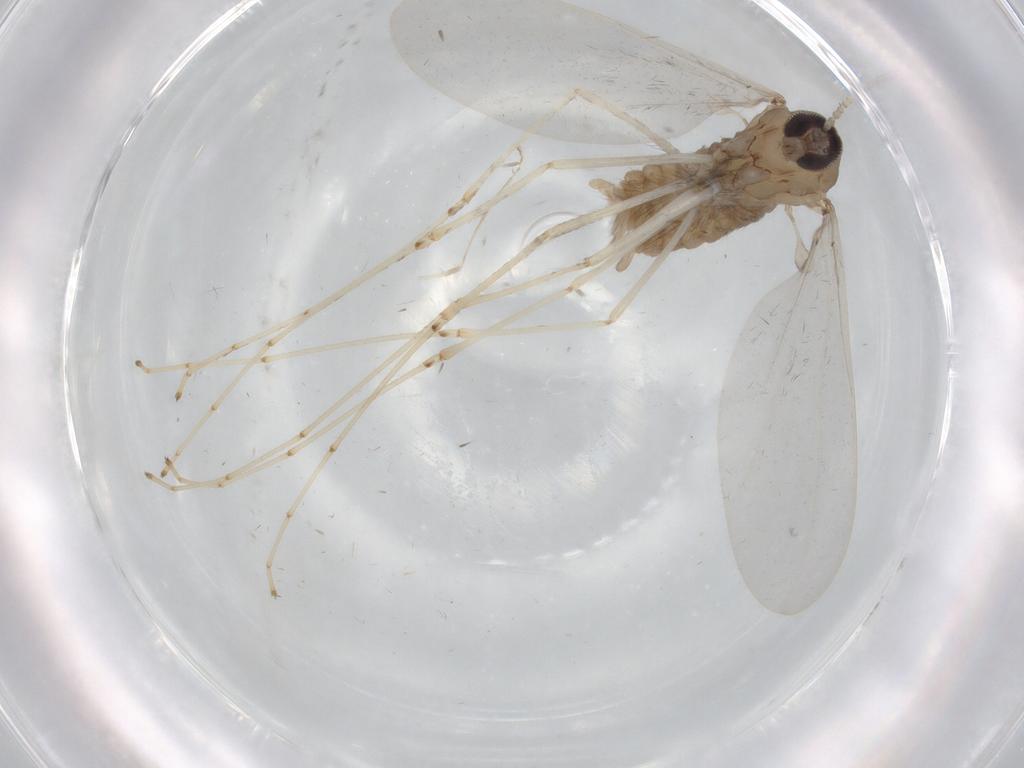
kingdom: Animalia
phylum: Arthropoda
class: Insecta
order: Diptera
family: Cecidomyiidae
